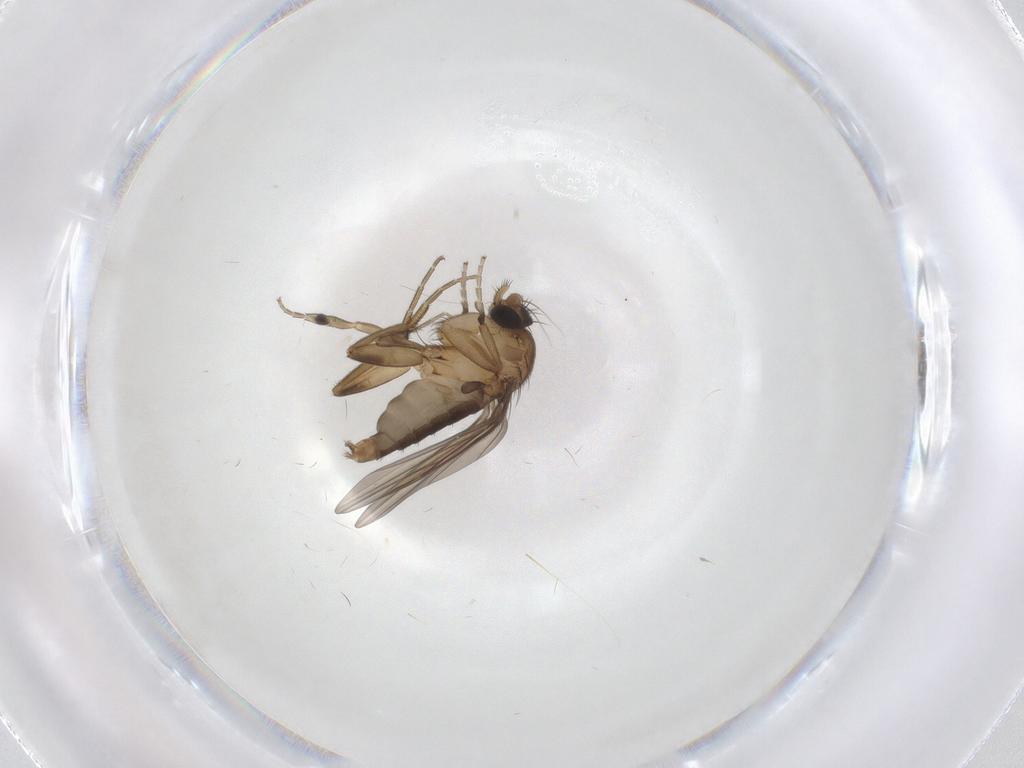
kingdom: Animalia
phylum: Arthropoda
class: Insecta
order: Diptera
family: Phoridae
